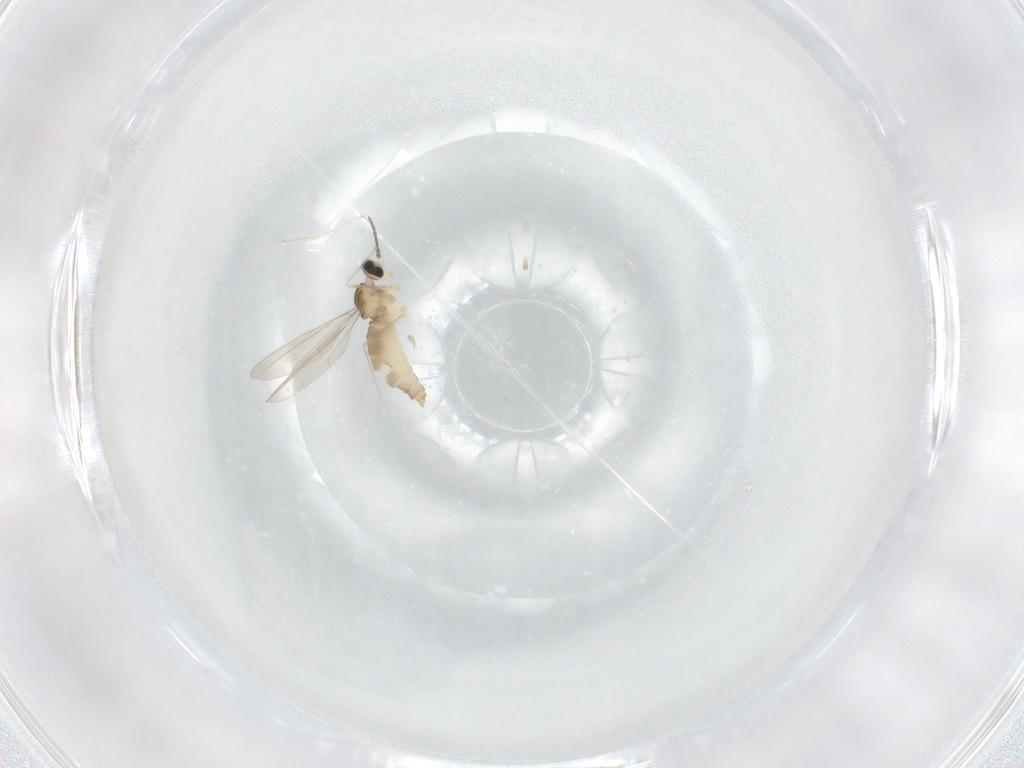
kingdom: Animalia
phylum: Arthropoda
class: Insecta
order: Diptera
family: Cecidomyiidae
